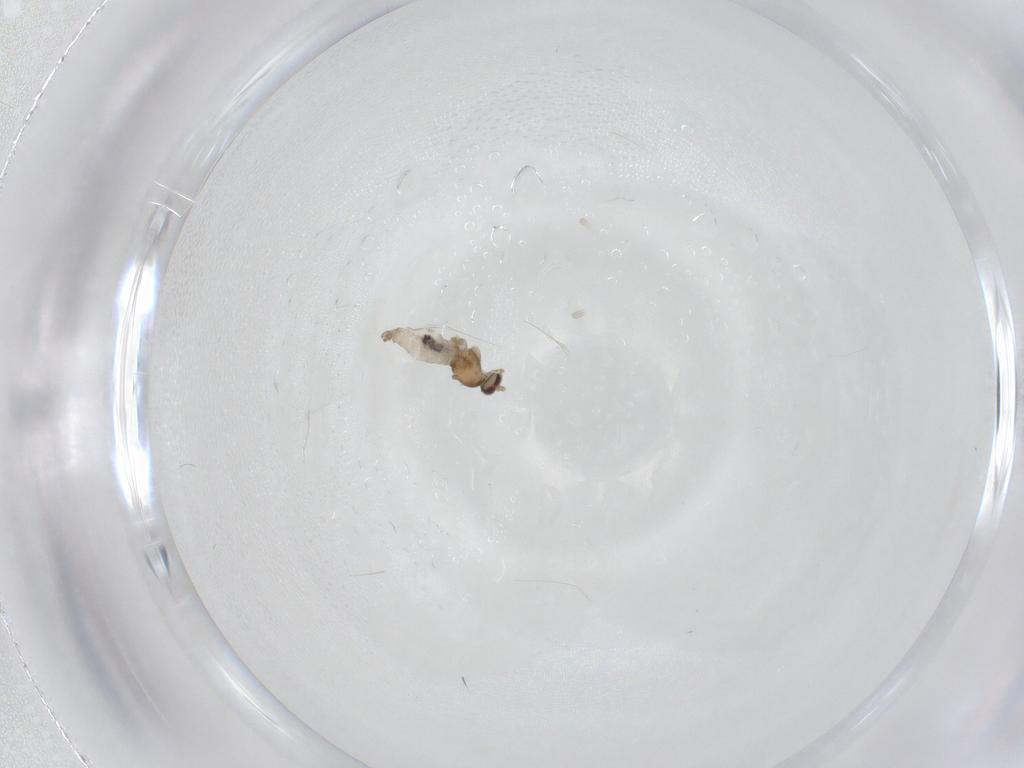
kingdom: Animalia
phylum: Arthropoda
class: Insecta
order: Diptera
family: Cecidomyiidae
